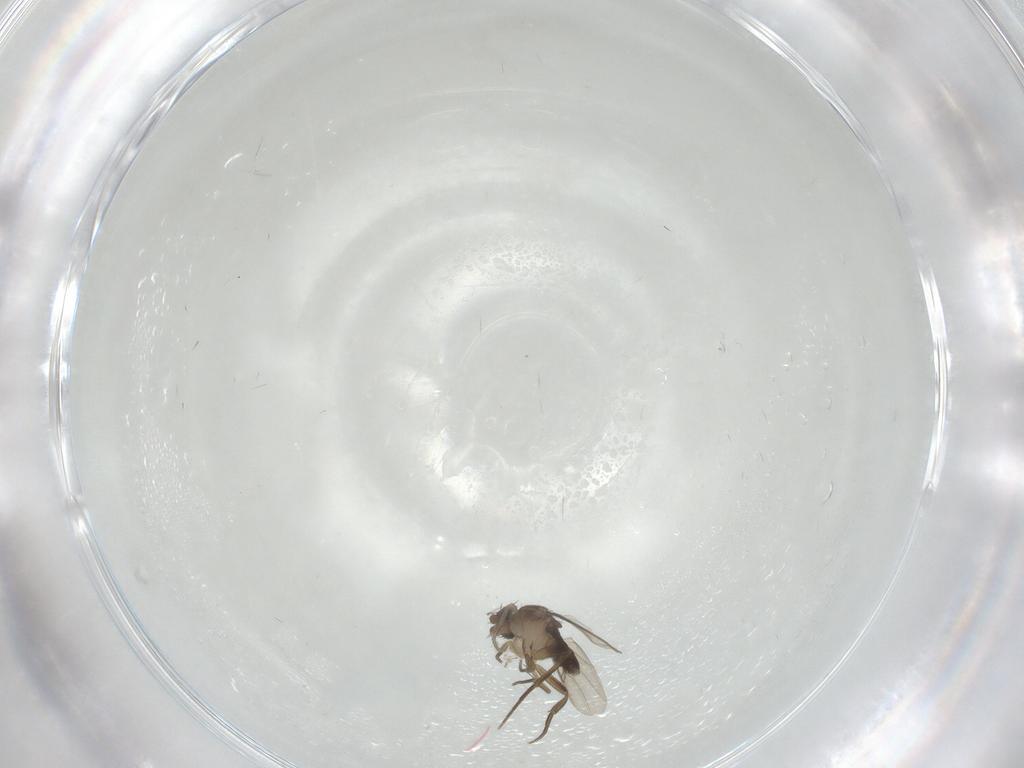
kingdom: Animalia
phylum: Arthropoda
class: Insecta
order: Diptera
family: Phoridae
